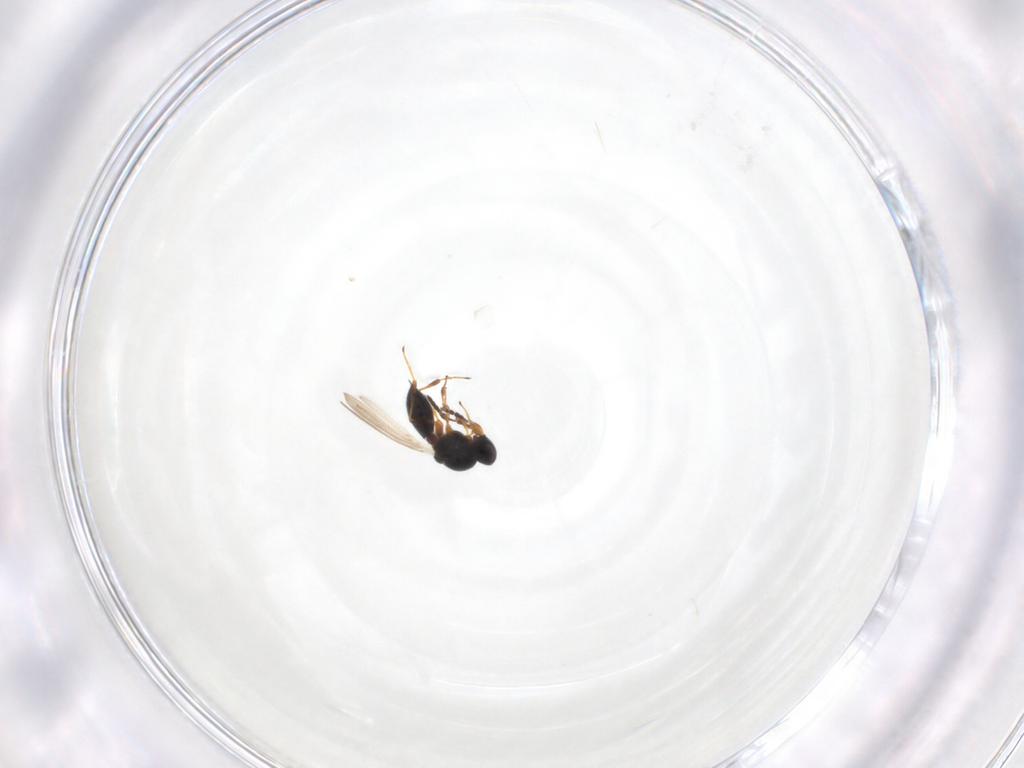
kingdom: Animalia
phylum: Arthropoda
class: Insecta
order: Hymenoptera
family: Platygastridae
